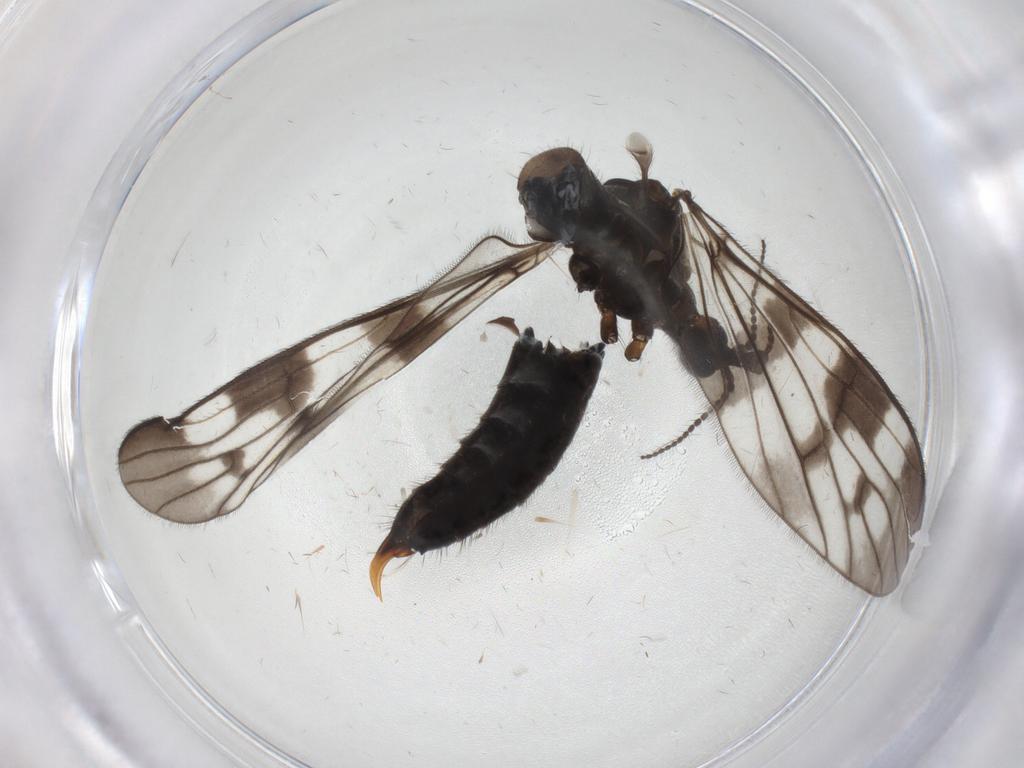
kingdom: Animalia
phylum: Arthropoda
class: Insecta
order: Diptera
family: Limoniidae
